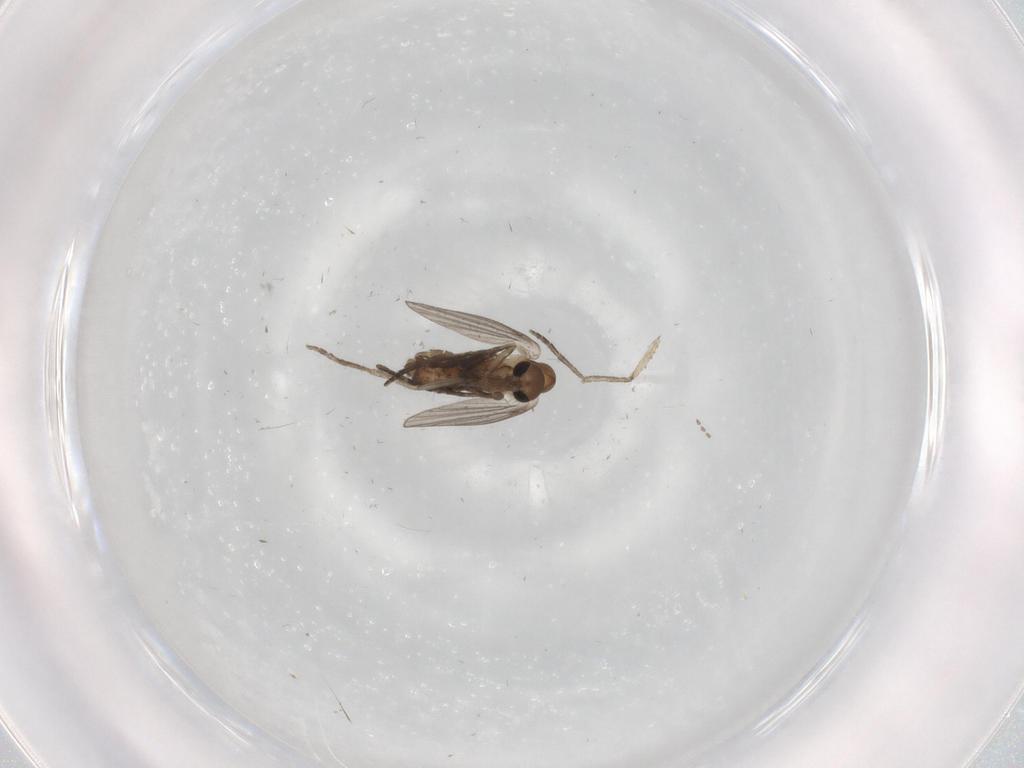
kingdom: Animalia
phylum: Arthropoda
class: Insecta
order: Diptera
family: Psychodidae
